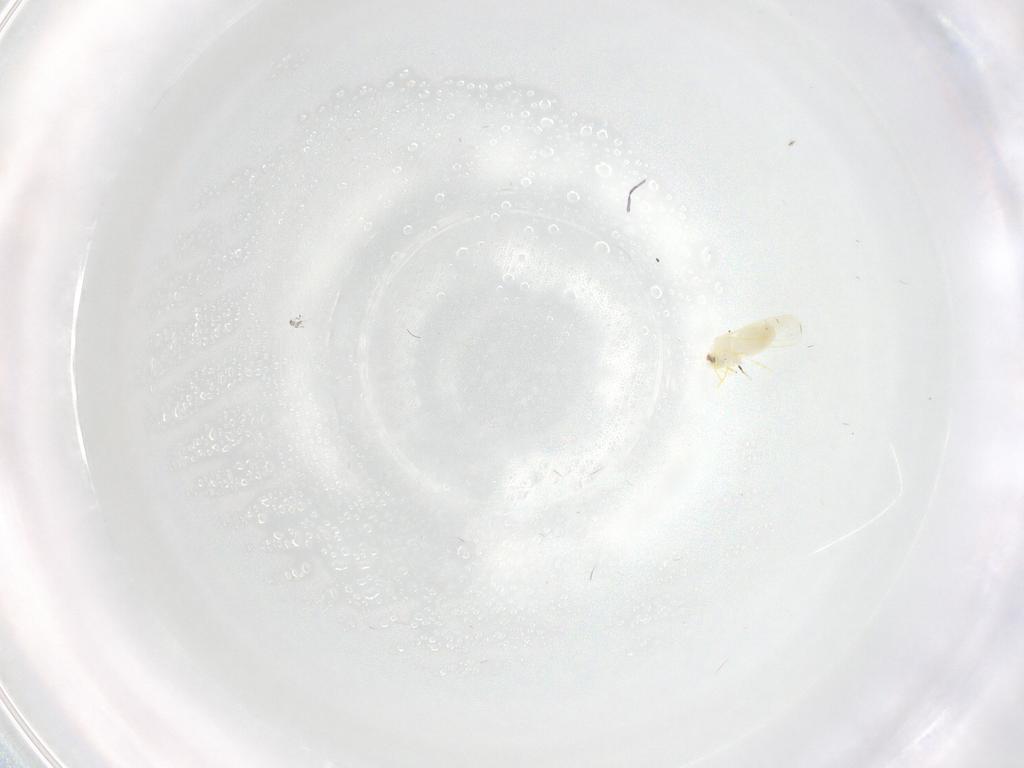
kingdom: Animalia
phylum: Arthropoda
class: Insecta
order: Hemiptera
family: Aleyrodidae
